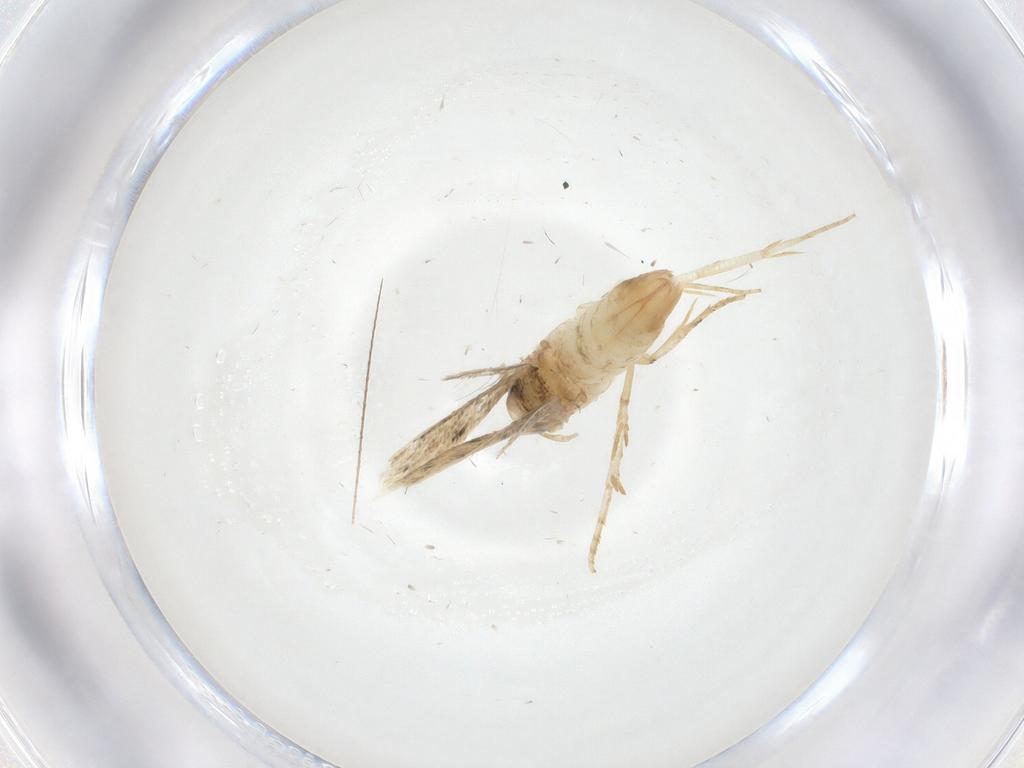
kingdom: Animalia
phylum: Arthropoda
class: Insecta
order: Lepidoptera
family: Gelechiidae
